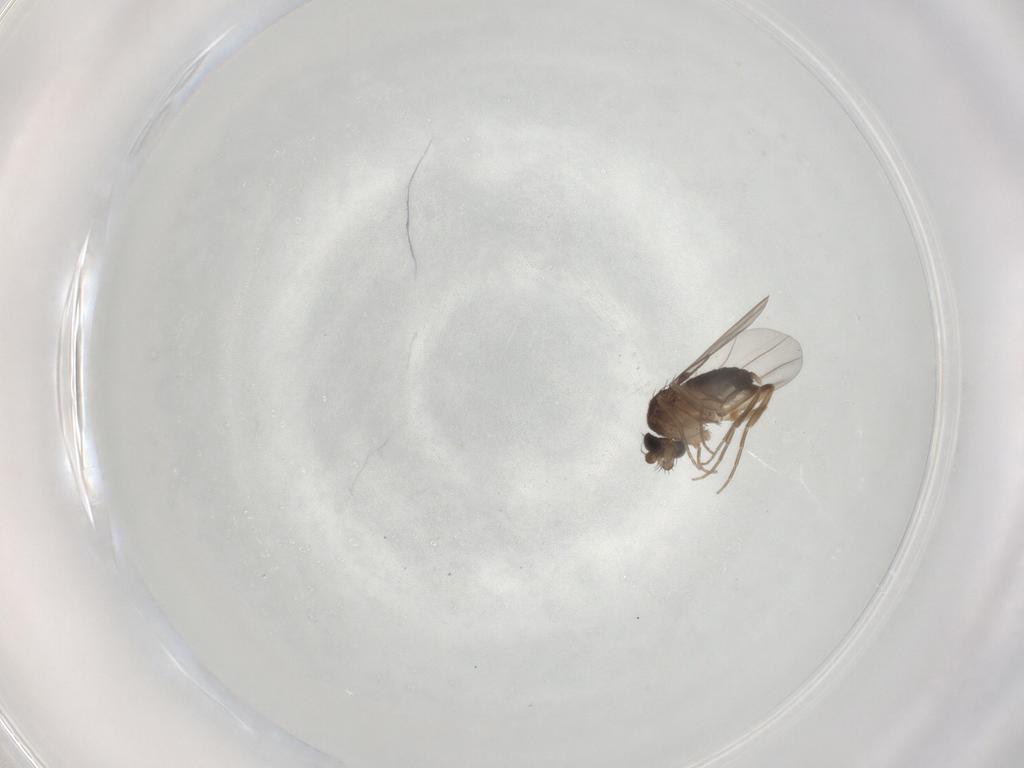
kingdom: Animalia
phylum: Arthropoda
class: Insecta
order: Diptera
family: Phoridae
